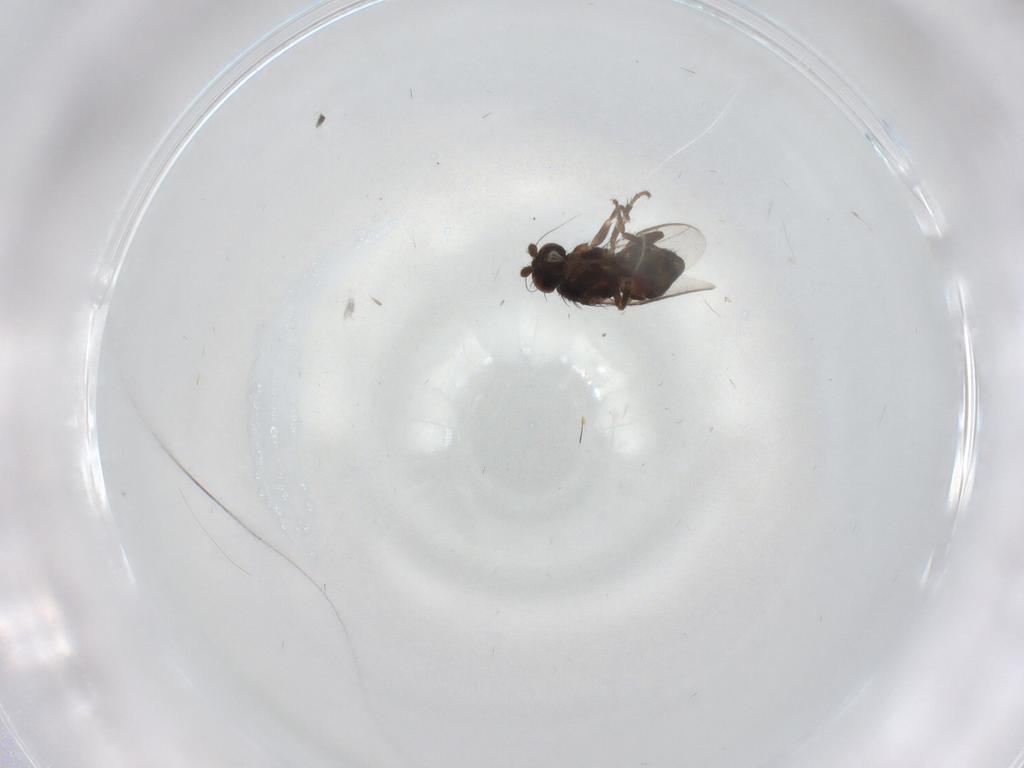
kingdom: Animalia
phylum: Arthropoda
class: Insecta
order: Diptera
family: Sphaeroceridae
